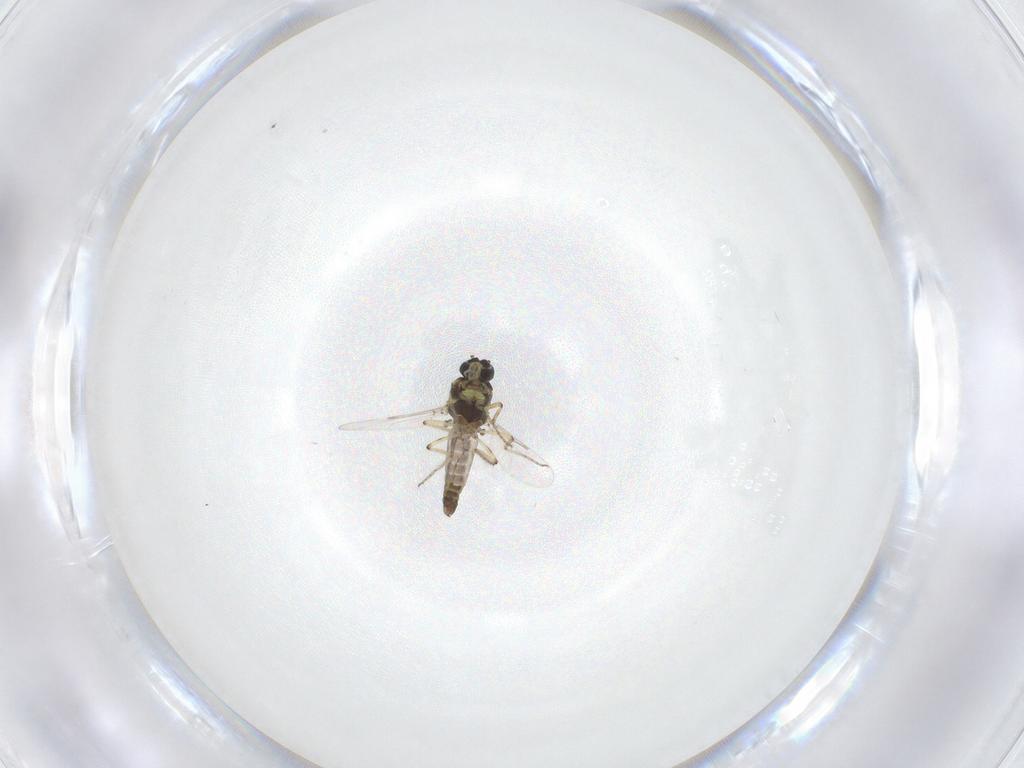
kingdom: Animalia
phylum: Arthropoda
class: Insecta
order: Diptera
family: Ceratopogonidae
